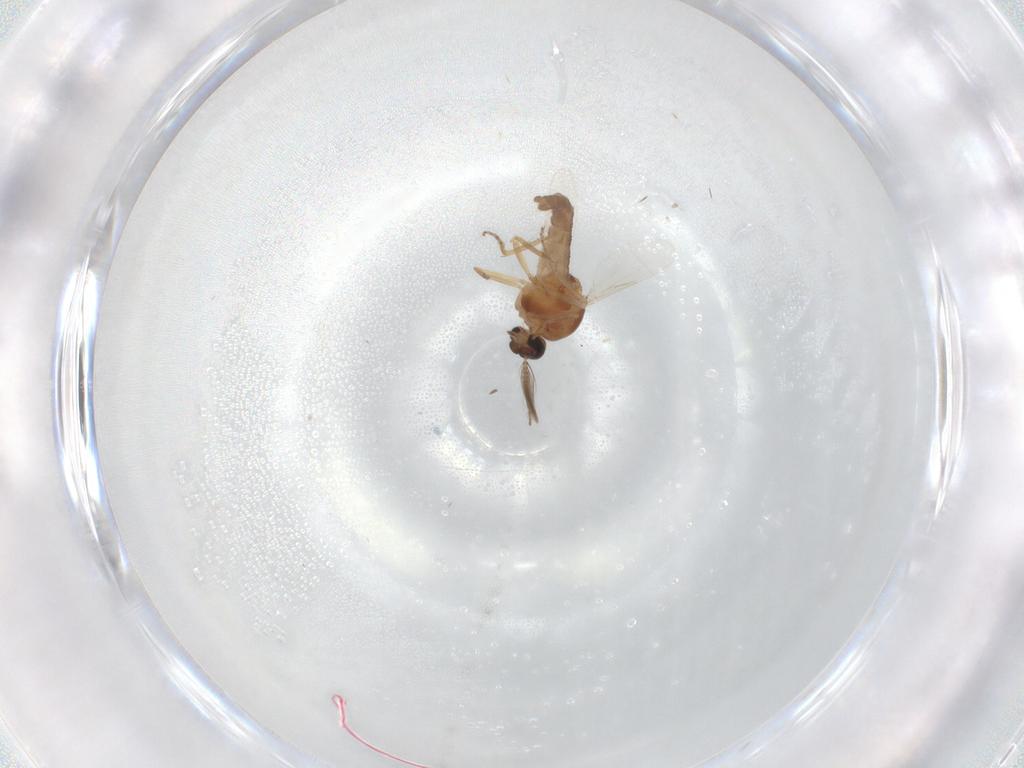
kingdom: Animalia
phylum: Arthropoda
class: Insecta
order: Diptera
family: Ceratopogonidae
